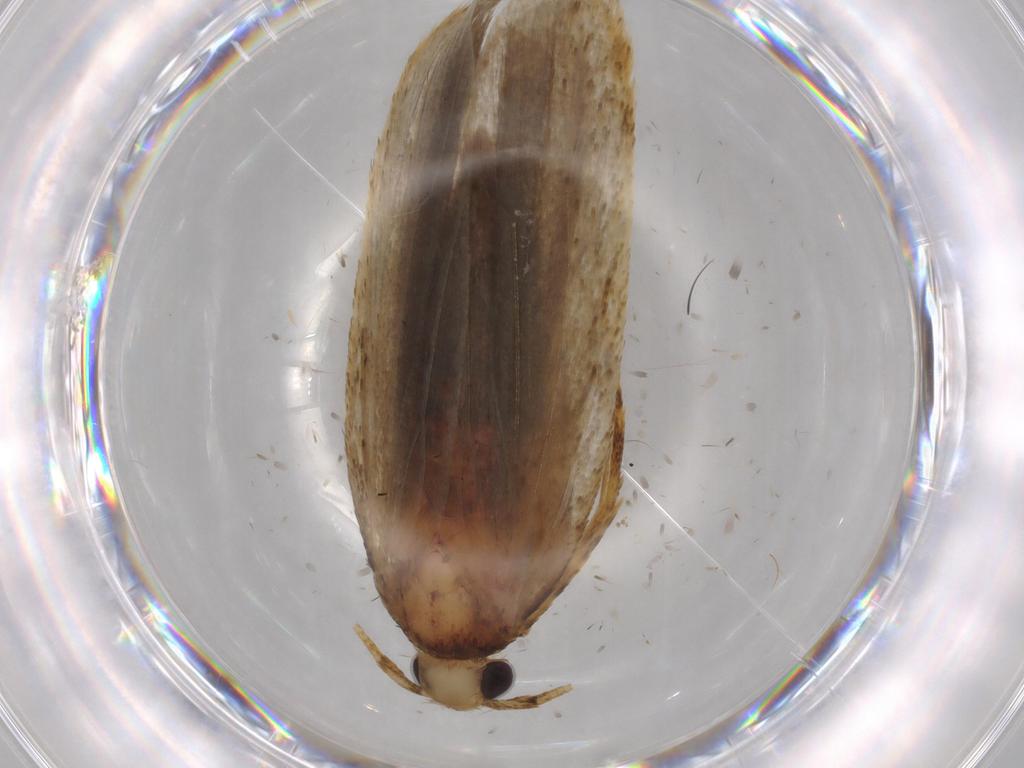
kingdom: Animalia
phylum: Arthropoda
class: Insecta
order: Lepidoptera
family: Autostichidae
